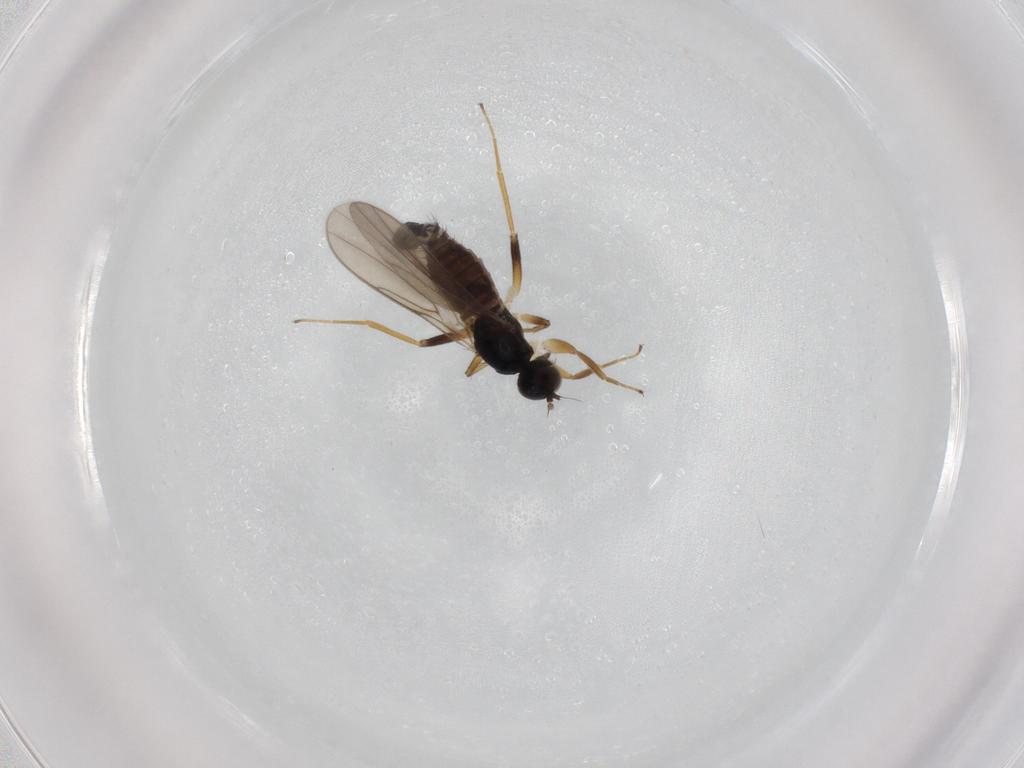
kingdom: Animalia
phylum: Arthropoda
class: Insecta
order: Diptera
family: Hybotidae
